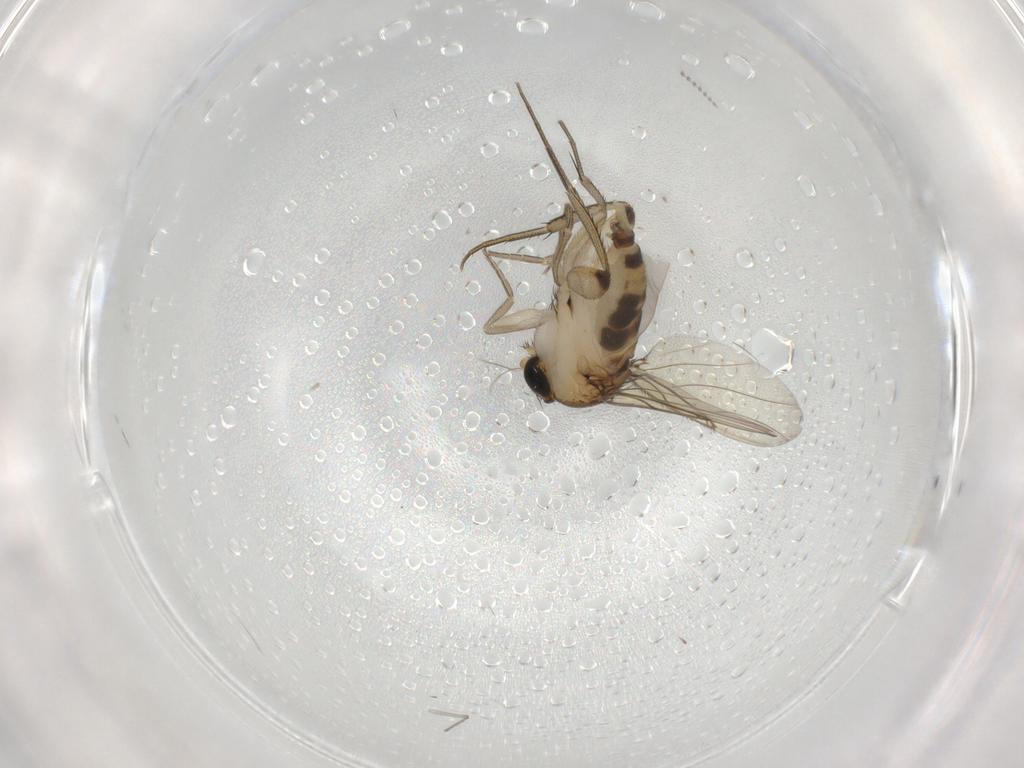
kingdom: Animalia
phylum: Arthropoda
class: Insecta
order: Diptera
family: Phoridae
